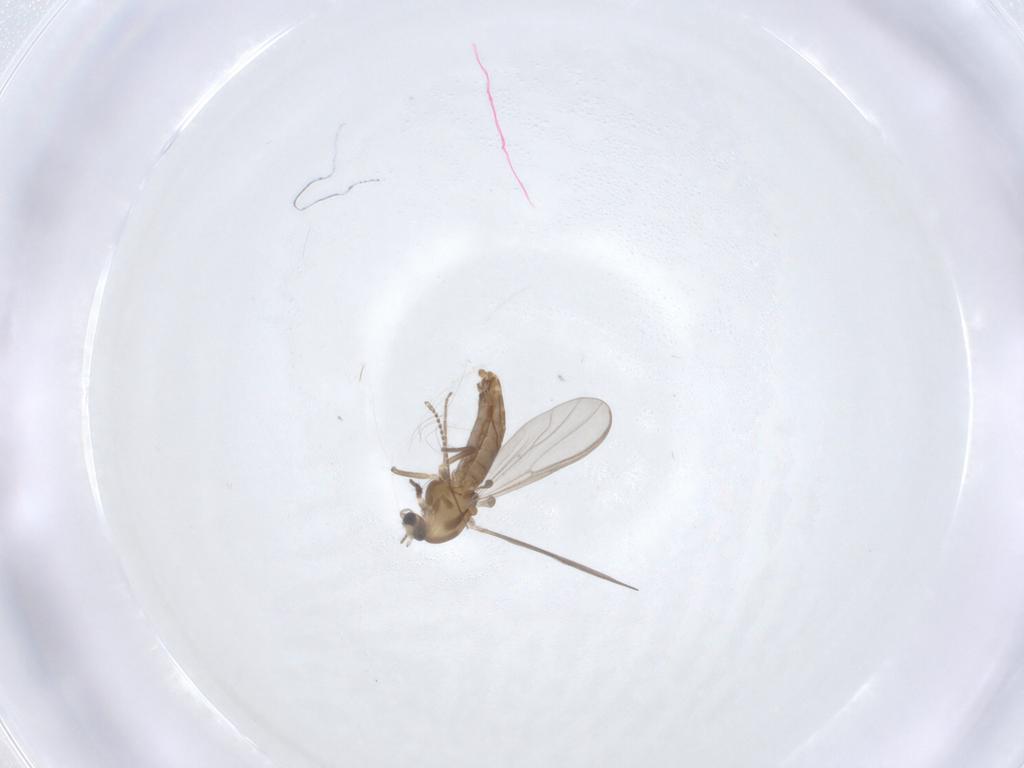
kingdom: Animalia
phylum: Arthropoda
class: Insecta
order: Diptera
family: Chironomidae
